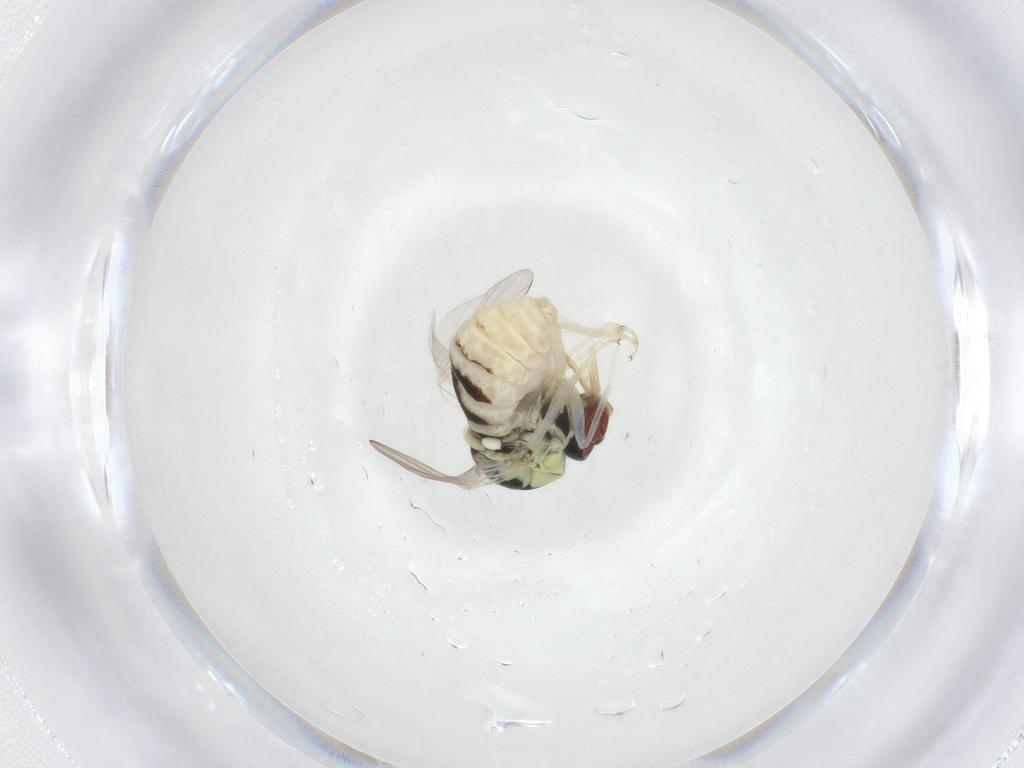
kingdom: Animalia
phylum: Arthropoda
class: Insecta
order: Diptera
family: Bombyliidae
